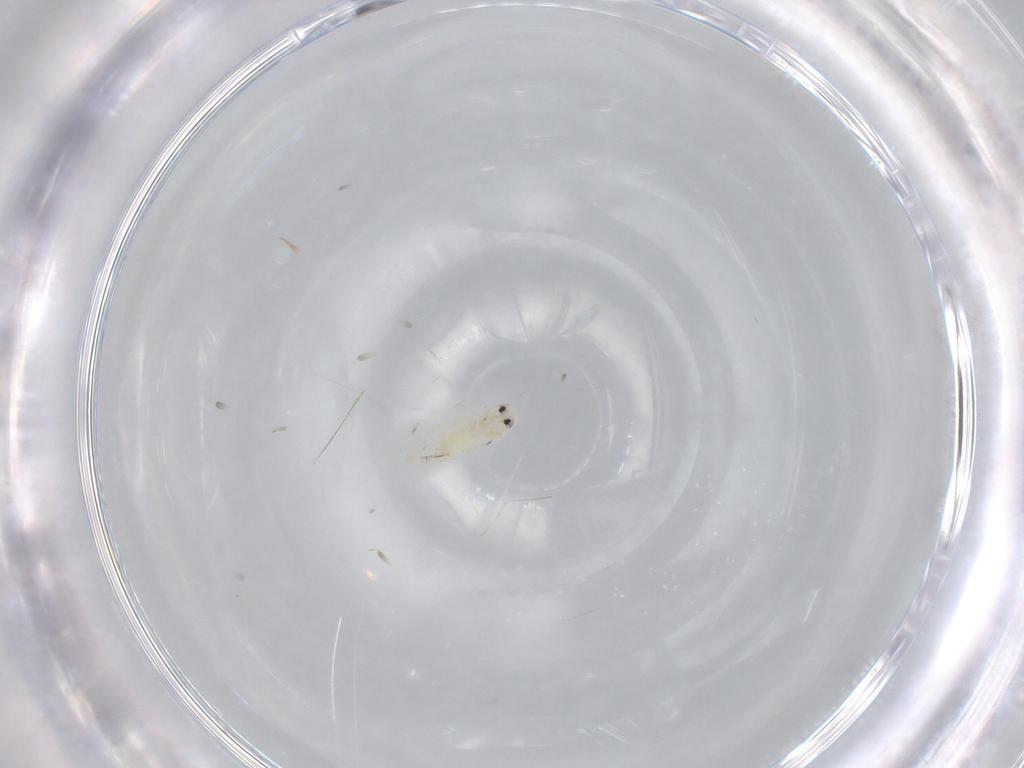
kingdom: Animalia
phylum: Arthropoda
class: Insecta
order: Hemiptera
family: Aleyrodidae
